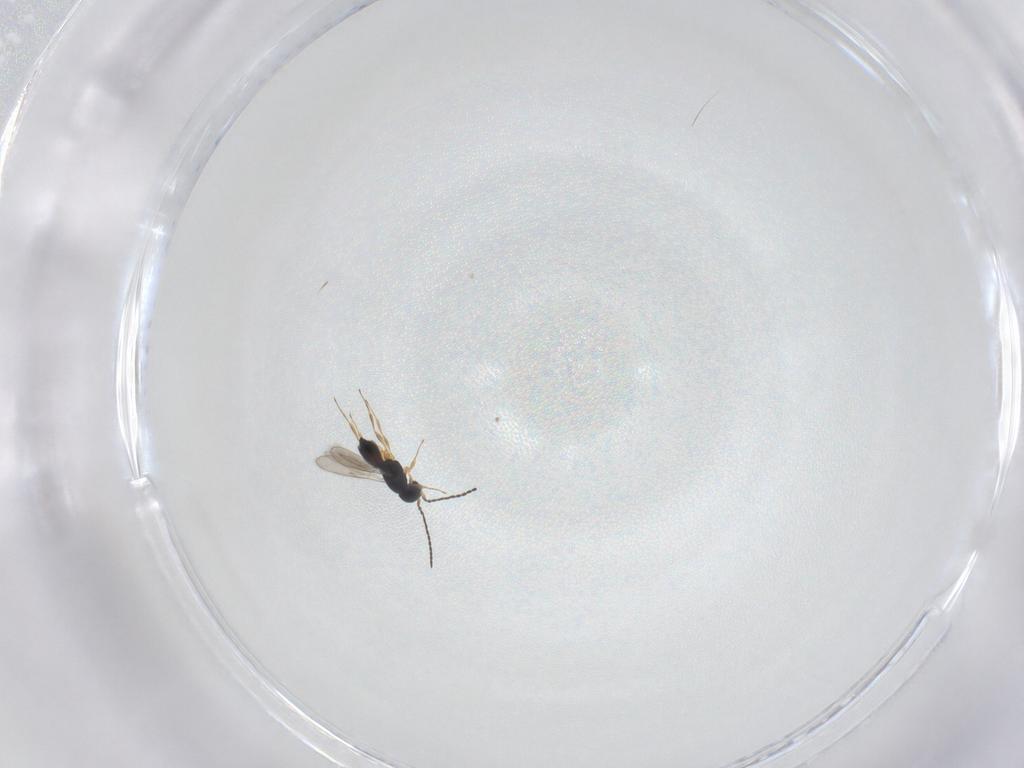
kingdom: Animalia
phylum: Arthropoda
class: Insecta
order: Hymenoptera
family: Scelionidae
